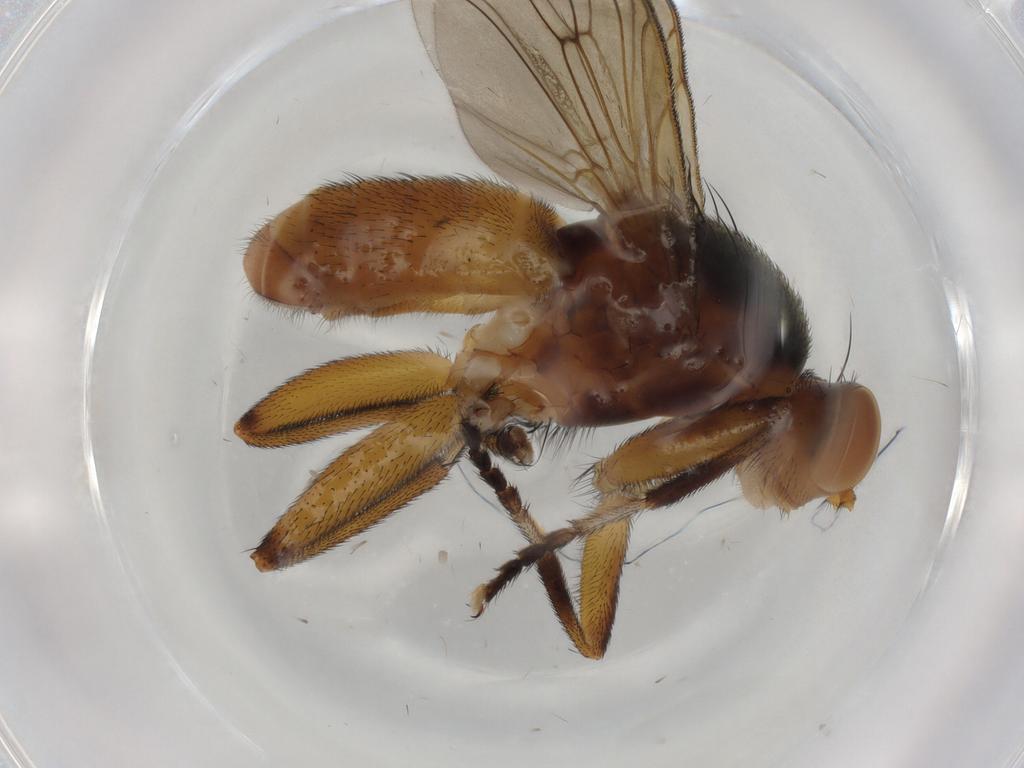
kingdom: Animalia
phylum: Arthropoda
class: Insecta
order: Diptera
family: Sciomyzidae
